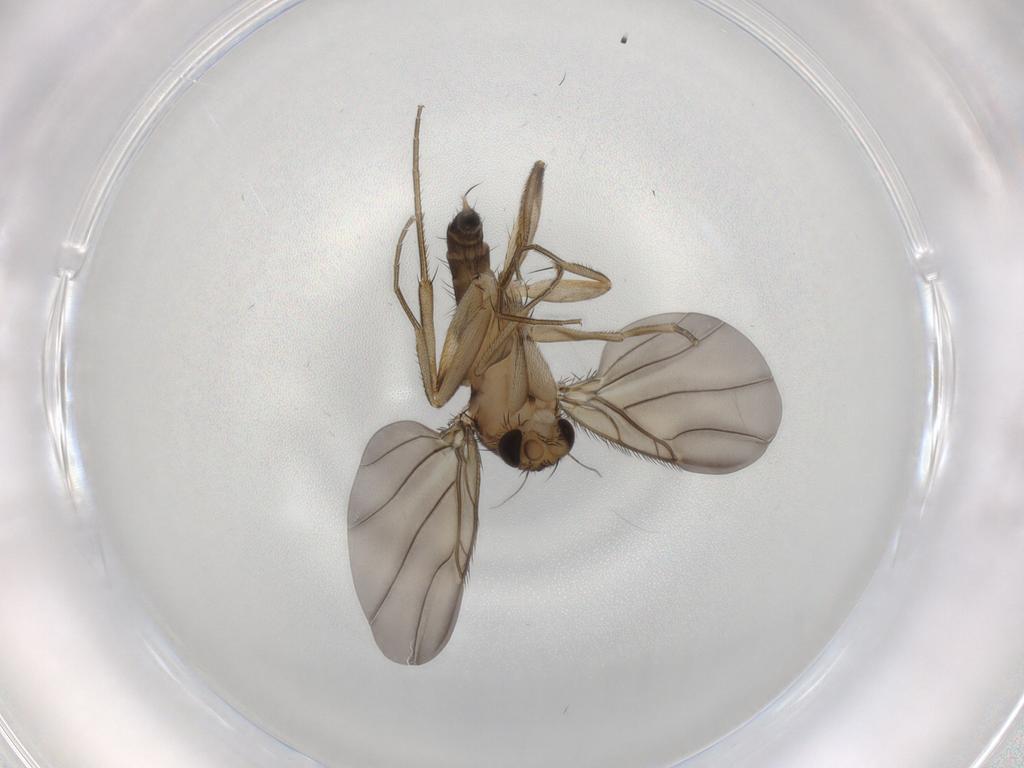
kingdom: Animalia
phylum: Arthropoda
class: Insecta
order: Diptera
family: Phoridae
